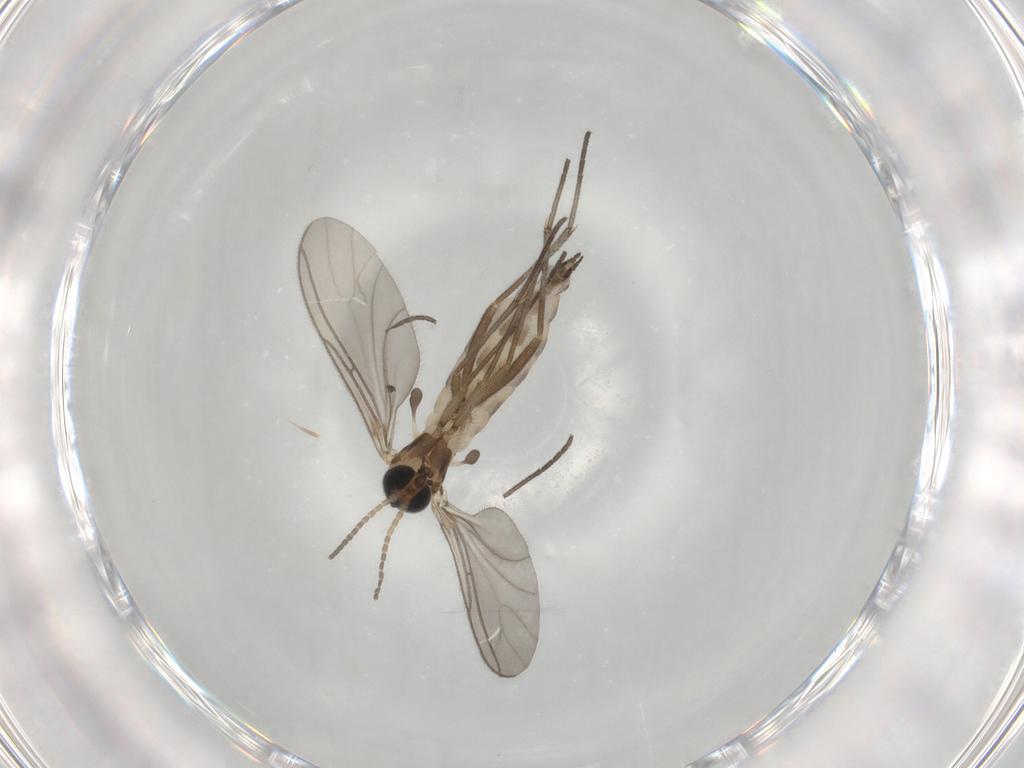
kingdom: Animalia
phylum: Arthropoda
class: Insecta
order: Diptera
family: Sciaridae
